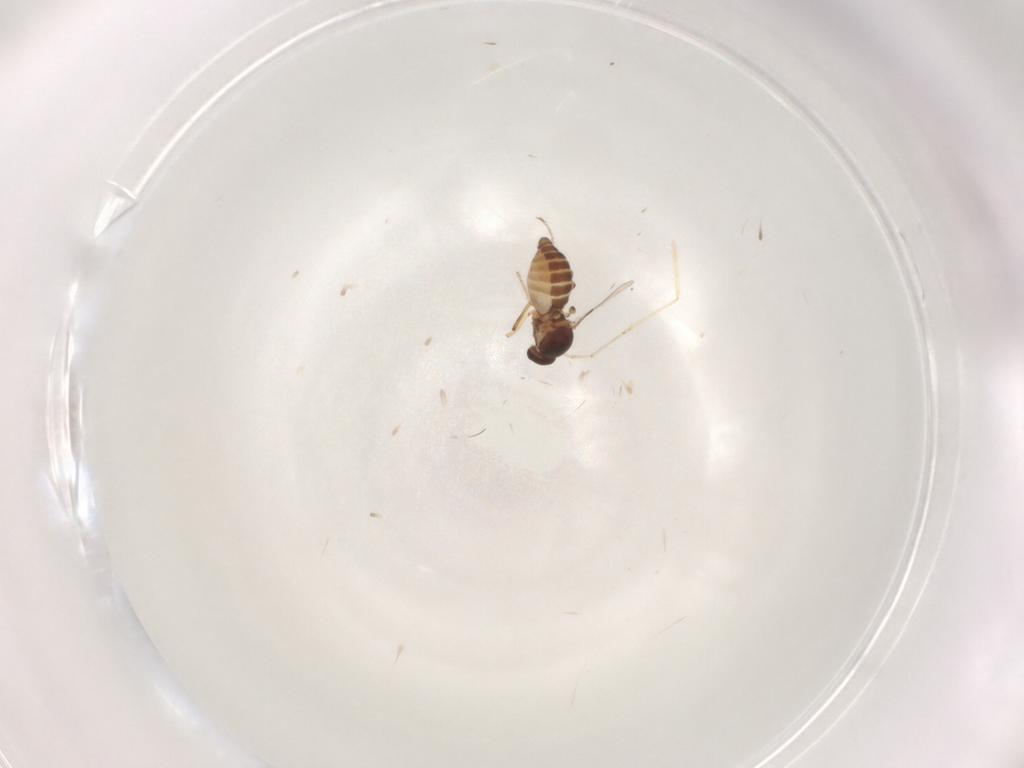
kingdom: Animalia
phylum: Arthropoda
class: Insecta
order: Diptera
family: Ceratopogonidae
